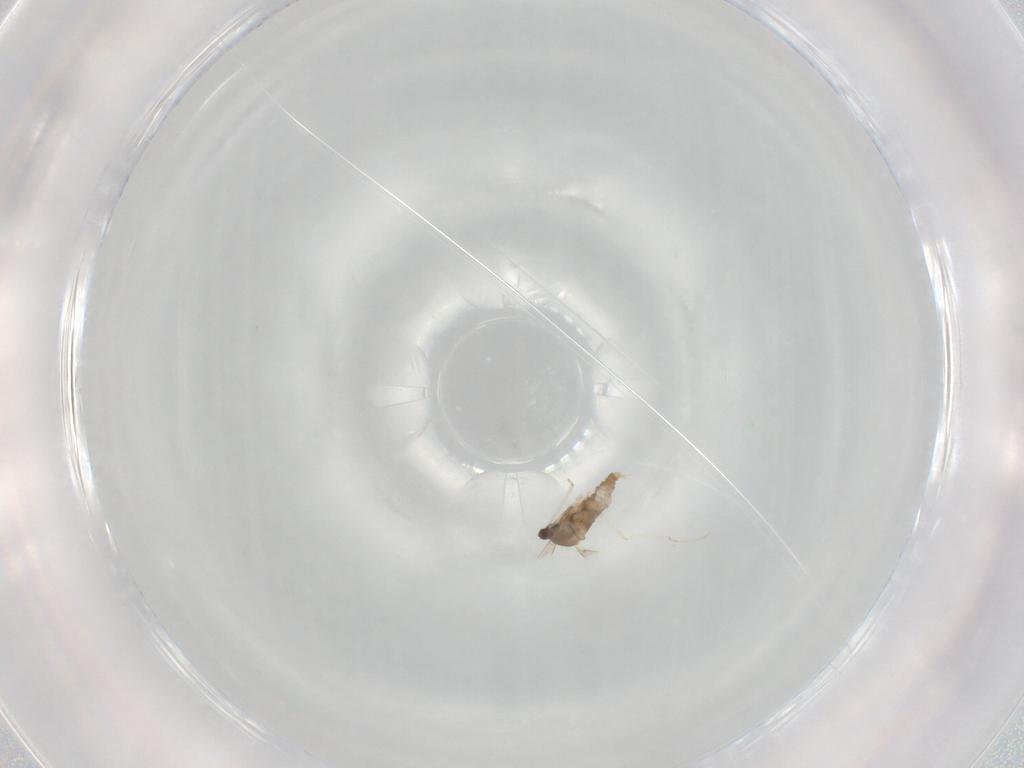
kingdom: Animalia
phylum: Arthropoda
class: Insecta
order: Diptera
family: Cecidomyiidae
